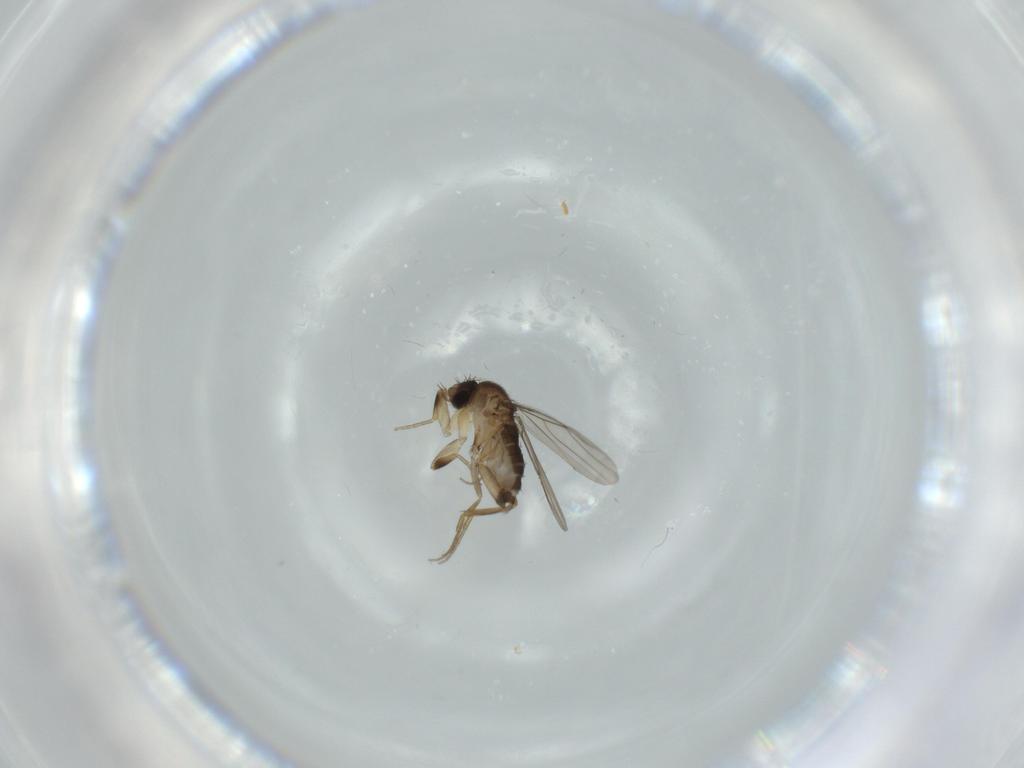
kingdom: Animalia
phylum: Arthropoda
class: Insecta
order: Diptera
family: Phoridae
